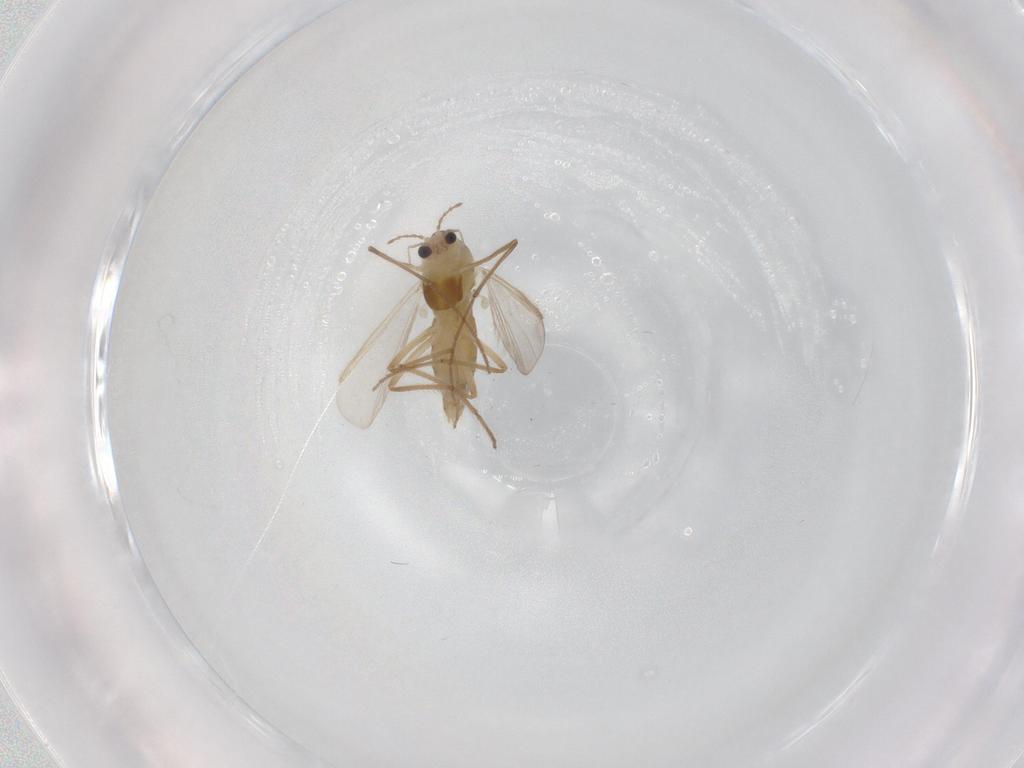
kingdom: Animalia
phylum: Arthropoda
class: Insecta
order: Diptera
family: Chironomidae
